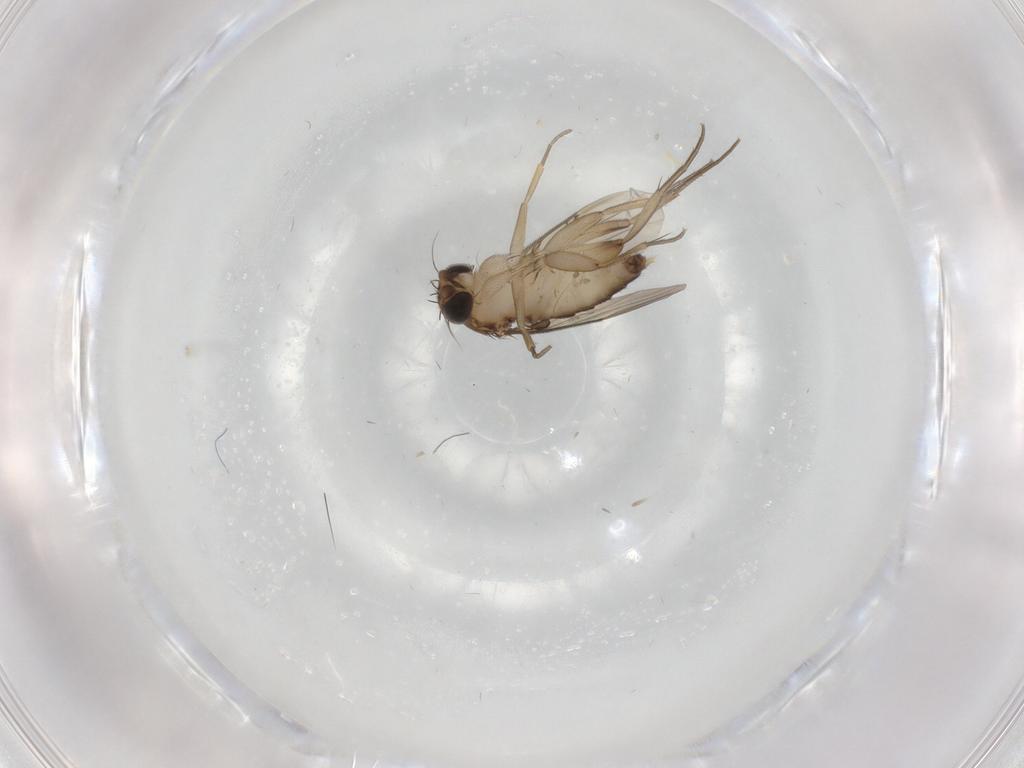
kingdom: Animalia
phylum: Arthropoda
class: Insecta
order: Diptera
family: Phoridae
